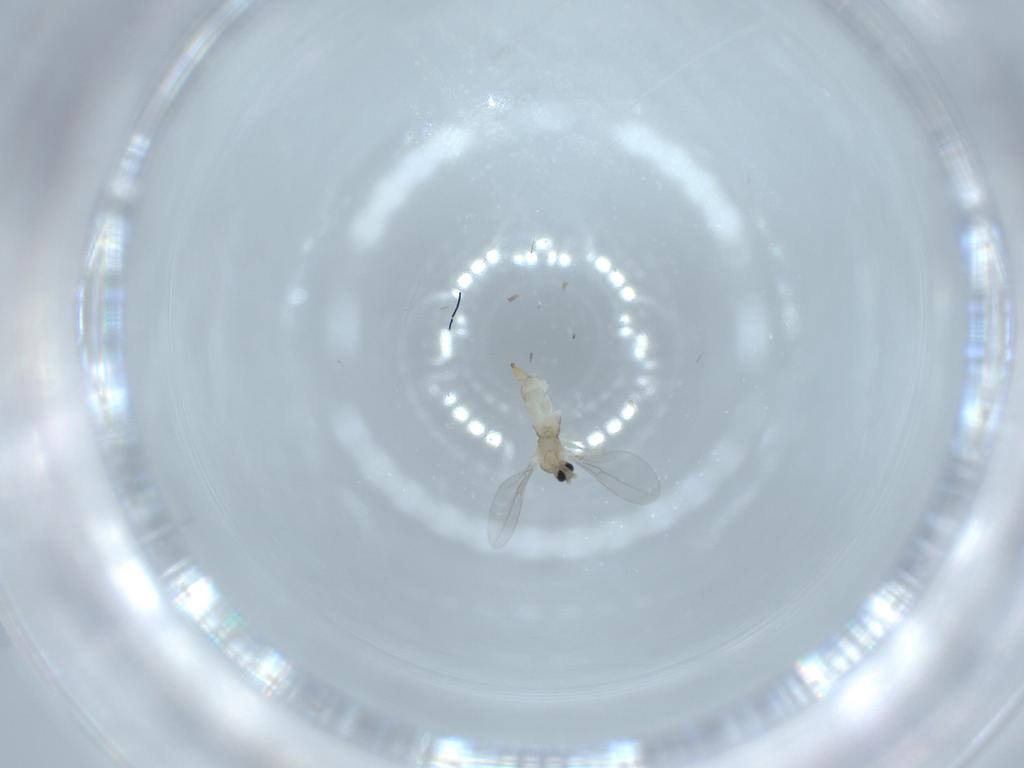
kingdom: Animalia
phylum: Arthropoda
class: Insecta
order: Diptera
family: Cecidomyiidae
